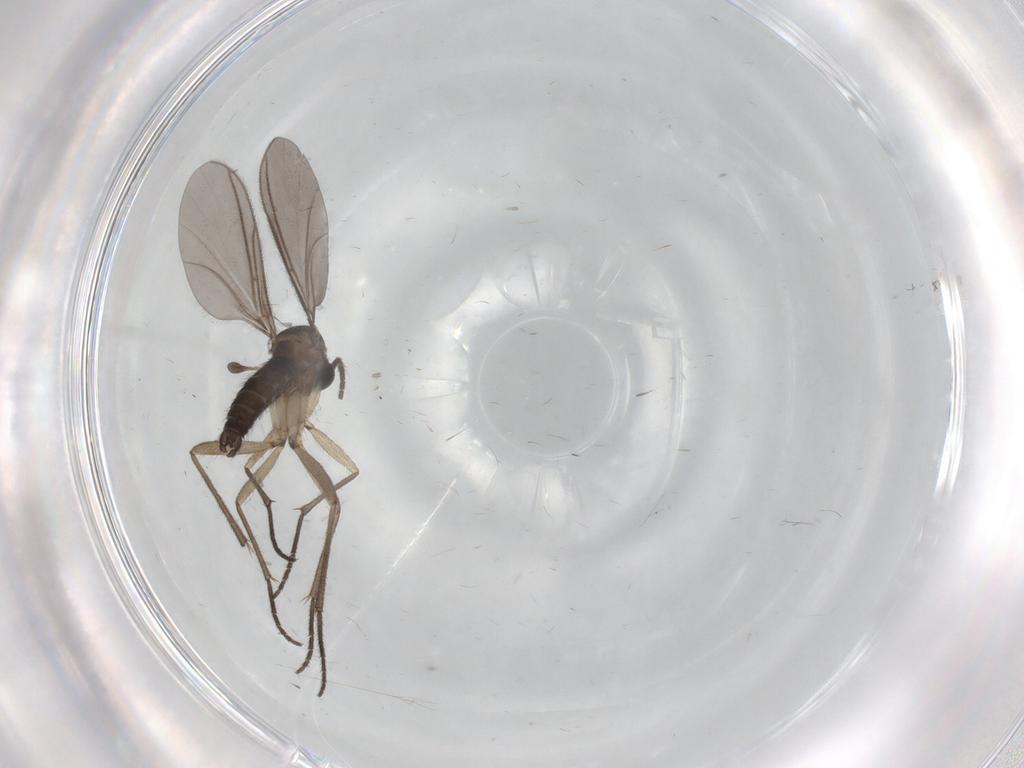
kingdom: Animalia
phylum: Arthropoda
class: Insecta
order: Diptera
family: Sciaridae
